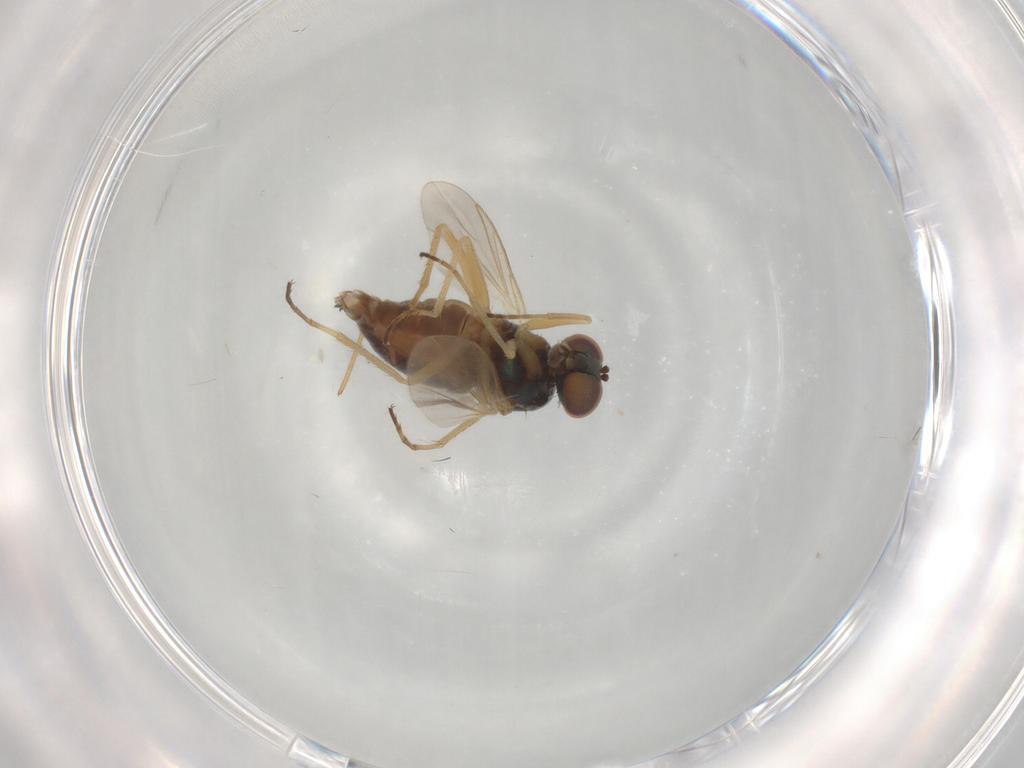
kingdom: Animalia
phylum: Arthropoda
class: Insecta
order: Diptera
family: Dolichopodidae
